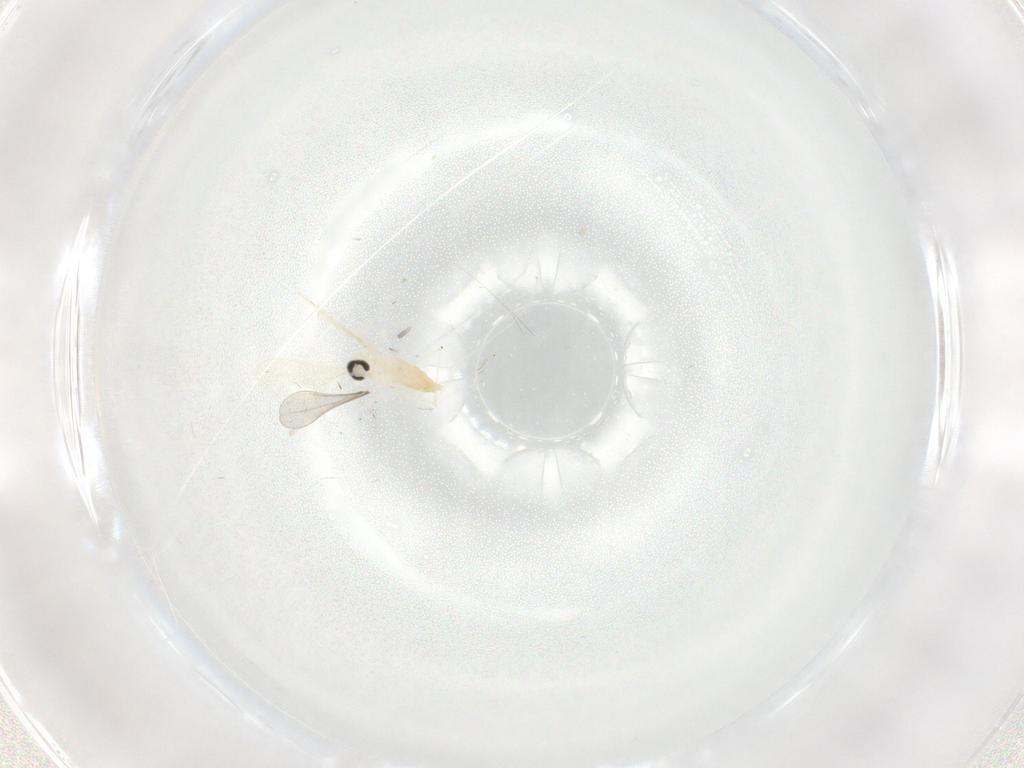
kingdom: Animalia
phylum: Arthropoda
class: Insecta
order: Diptera
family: Cecidomyiidae
